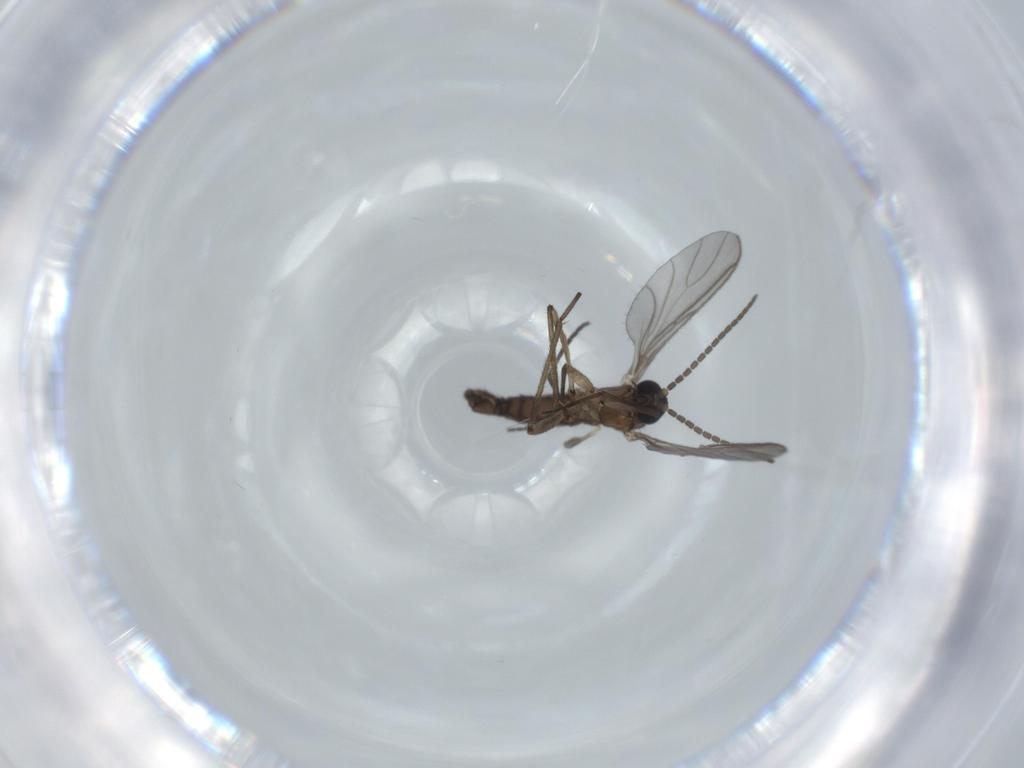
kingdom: Animalia
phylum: Arthropoda
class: Insecta
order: Diptera
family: Sciaridae
